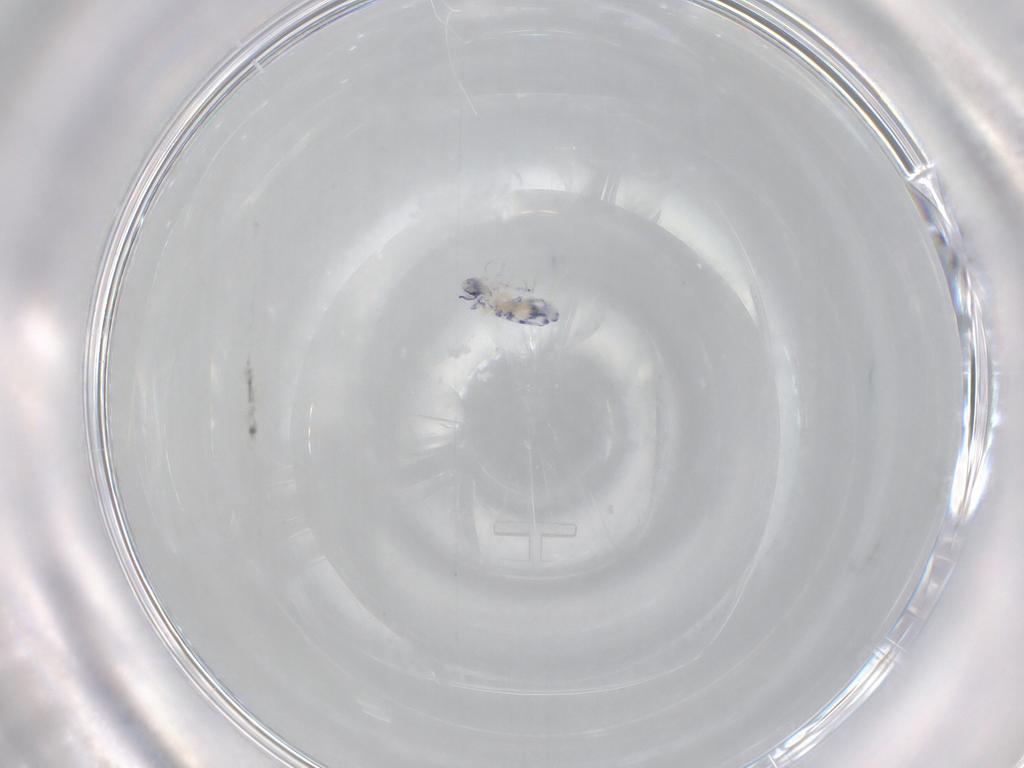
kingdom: Animalia
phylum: Arthropoda
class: Collembola
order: Entomobryomorpha
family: Entomobryidae
